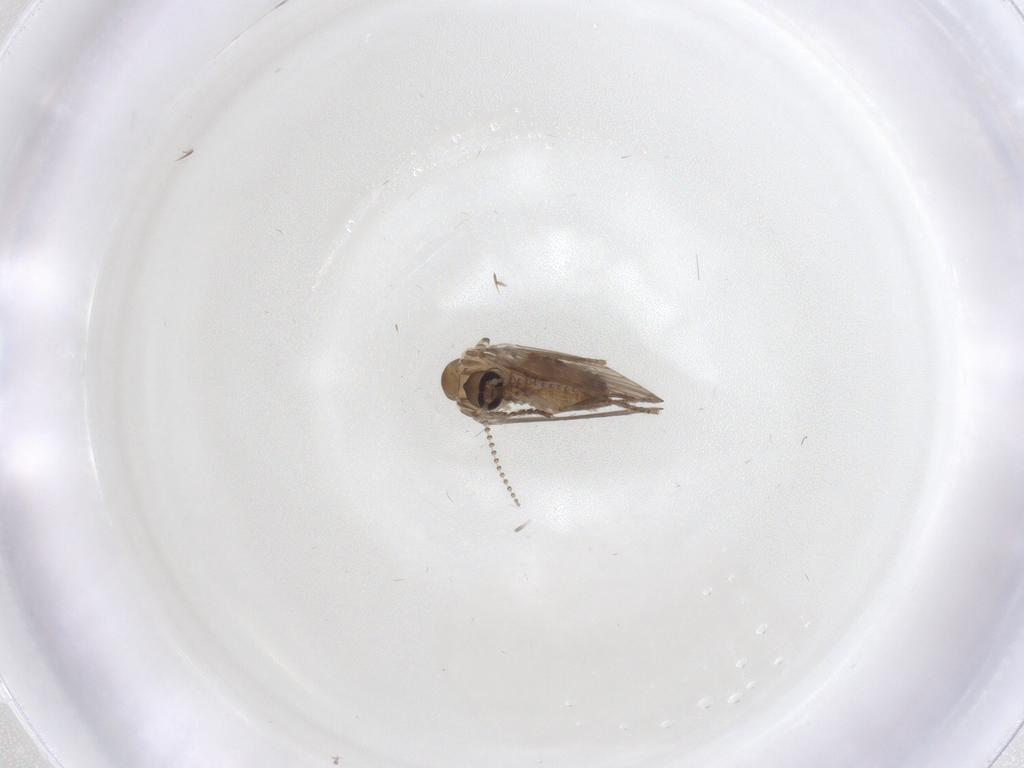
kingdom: Animalia
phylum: Arthropoda
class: Insecta
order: Diptera
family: Psychodidae
